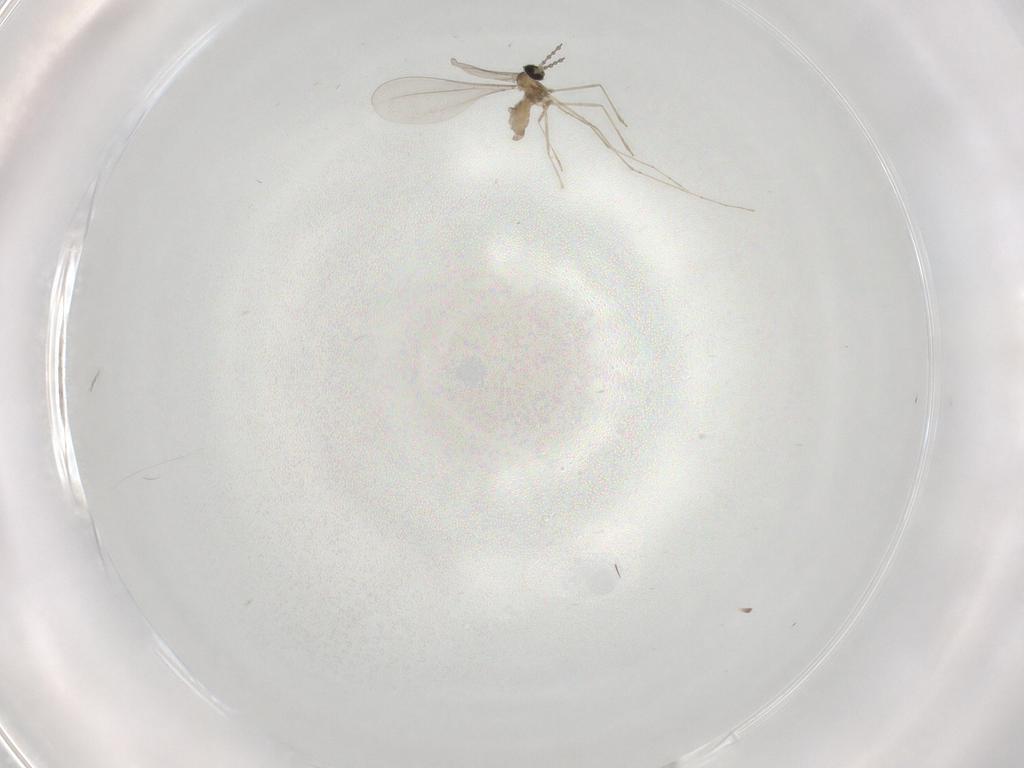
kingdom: Animalia
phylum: Arthropoda
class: Insecta
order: Diptera
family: Cecidomyiidae
